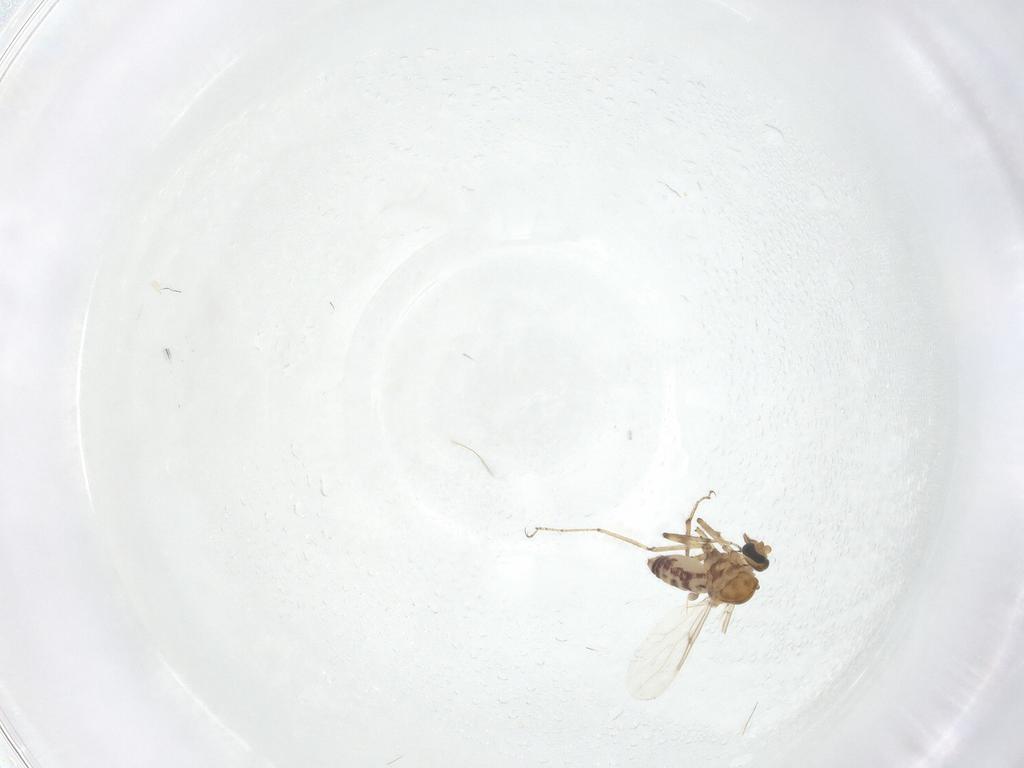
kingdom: Animalia
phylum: Arthropoda
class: Insecta
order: Diptera
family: Ceratopogonidae
